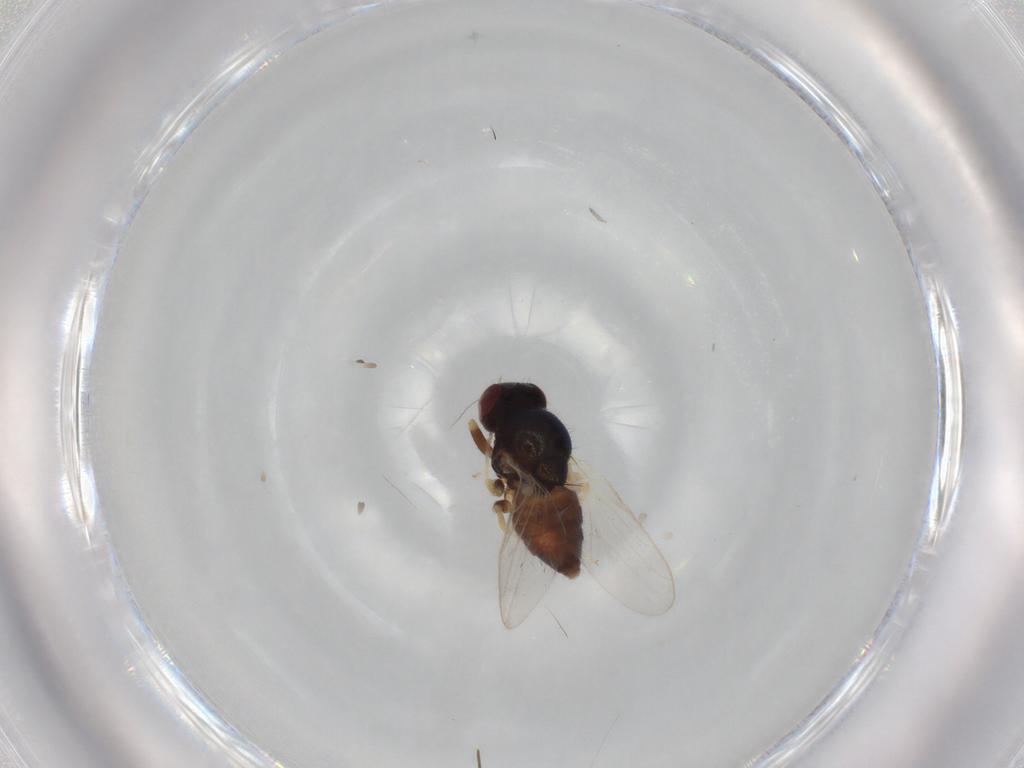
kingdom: Animalia
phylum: Arthropoda
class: Insecta
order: Diptera
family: Chloropidae
